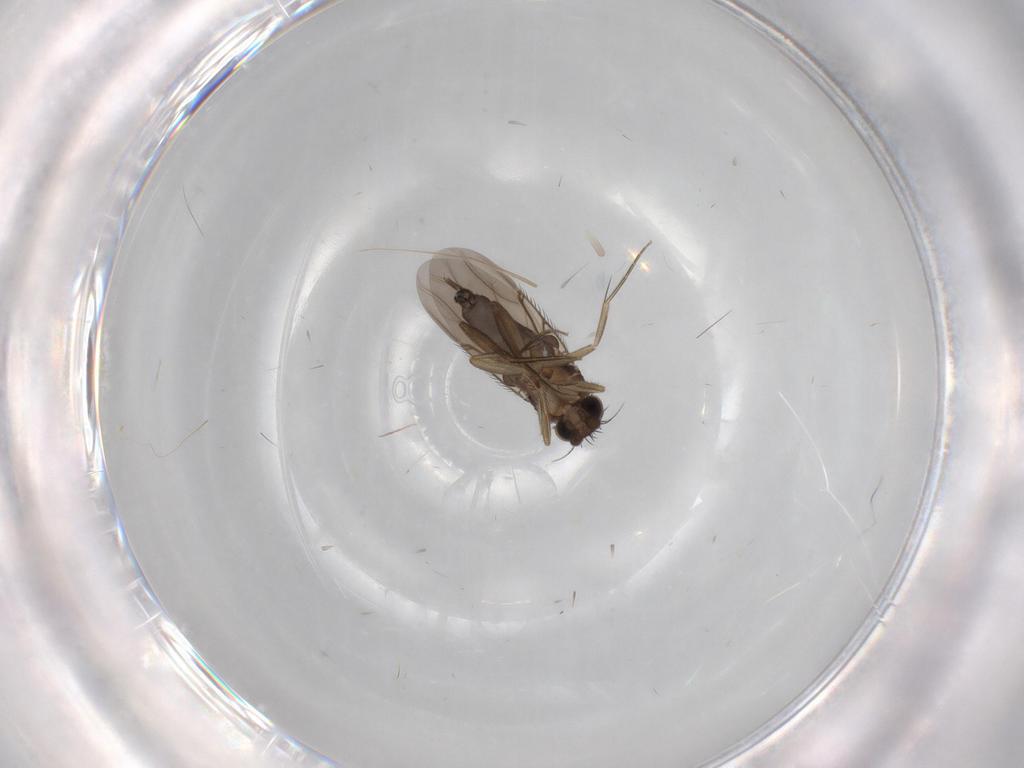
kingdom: Animalia
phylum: Arthropoda
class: Insecta
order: Diptera
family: Phoridae
